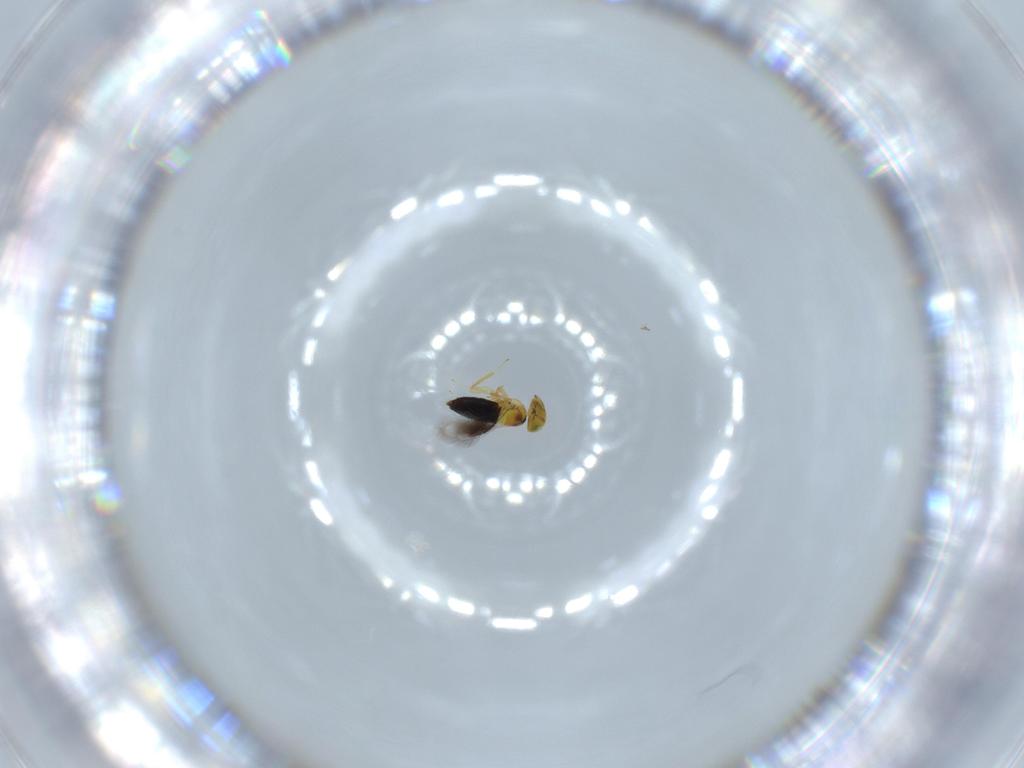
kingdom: Animalia
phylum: Arthropoda
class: Insecta
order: Hymenoptera
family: Signiphoridae
